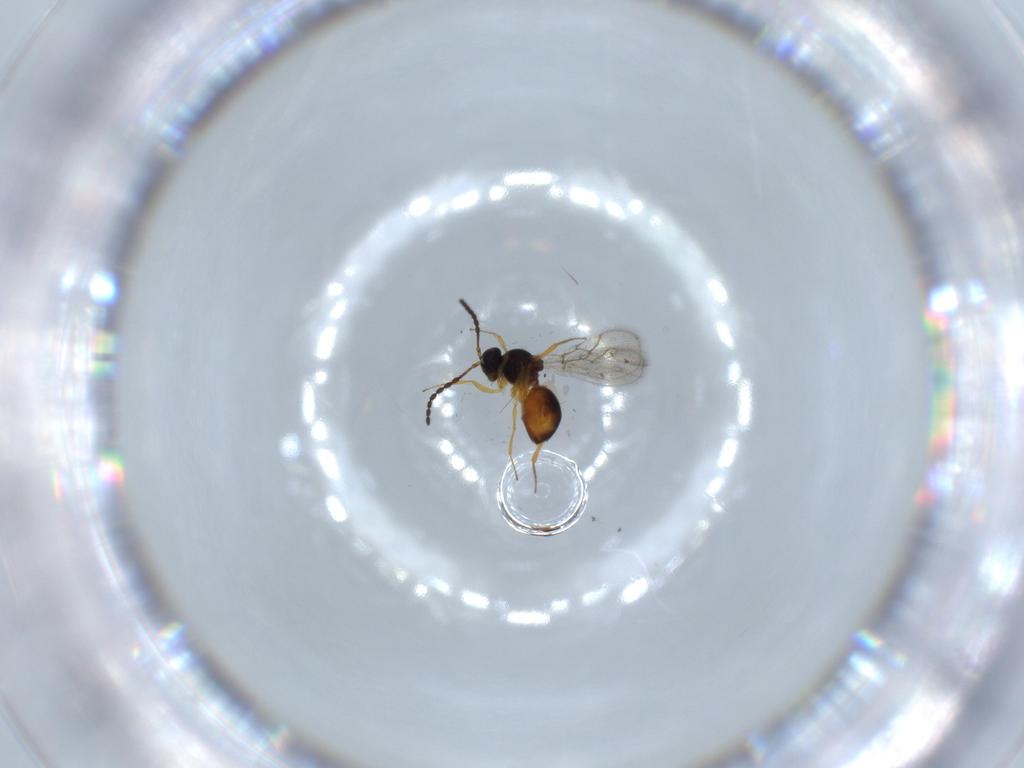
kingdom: Animalia
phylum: Arthropoda
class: Insecta
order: Hymenoptera
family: Figitidae
